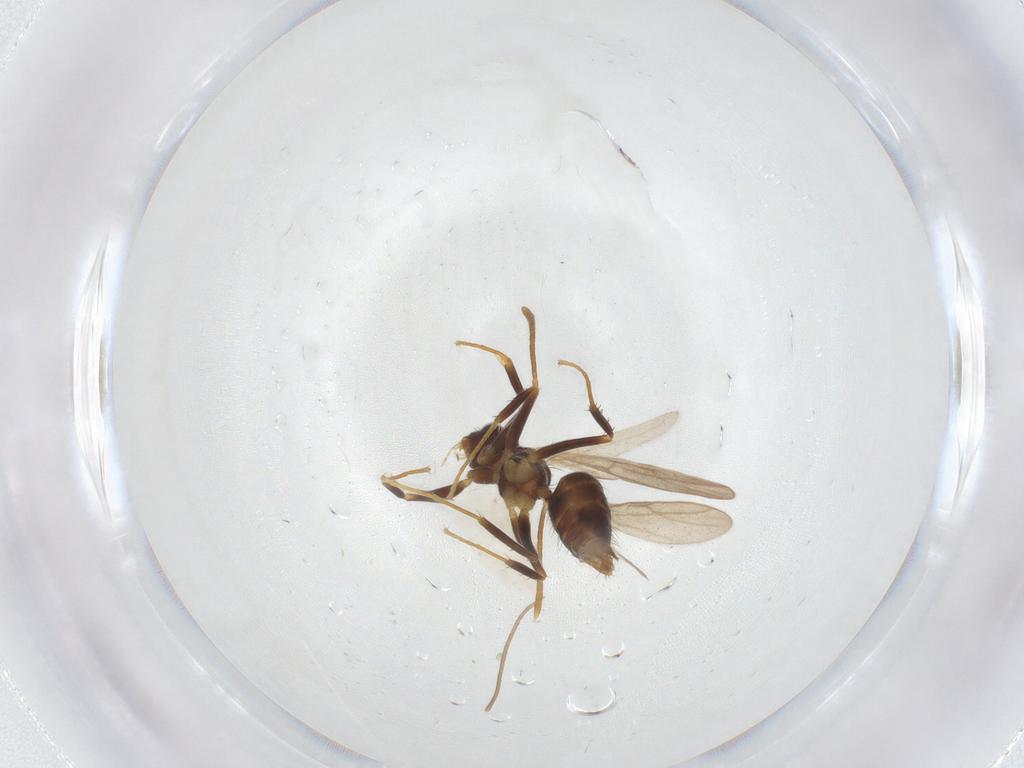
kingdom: Animalia
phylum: Arthropoda
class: Insecta
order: Hymenoptera
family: Formicidae
